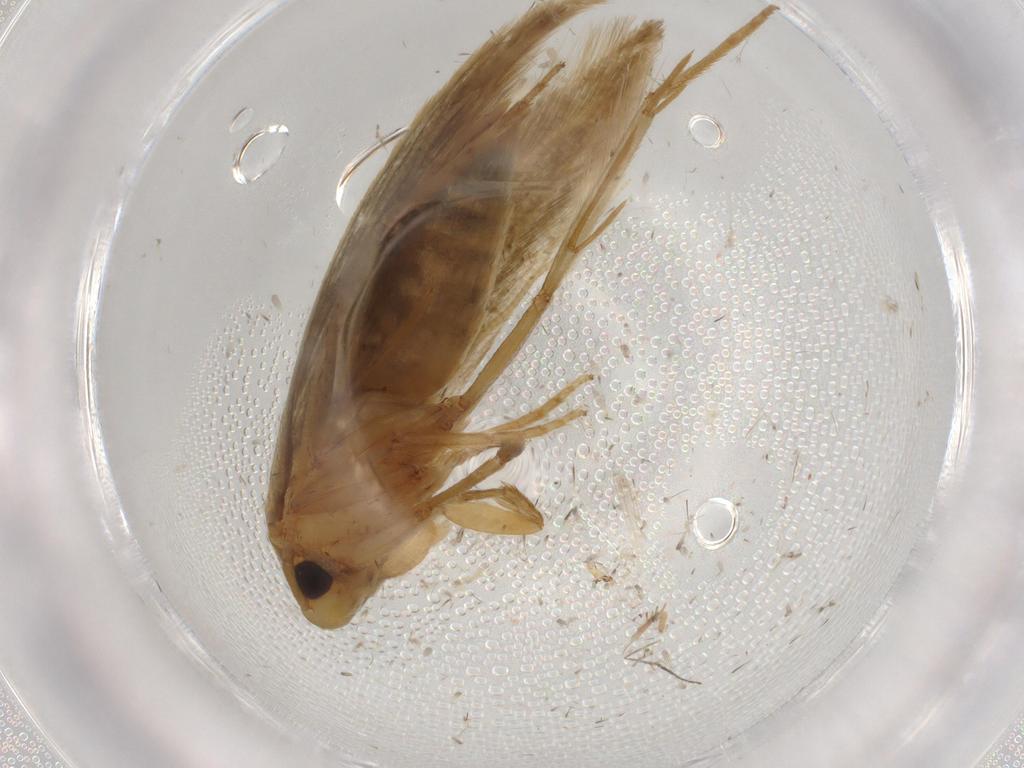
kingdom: Animalia
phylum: Arthropoda
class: Insecta
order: Lepidoptera
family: Tineidae
